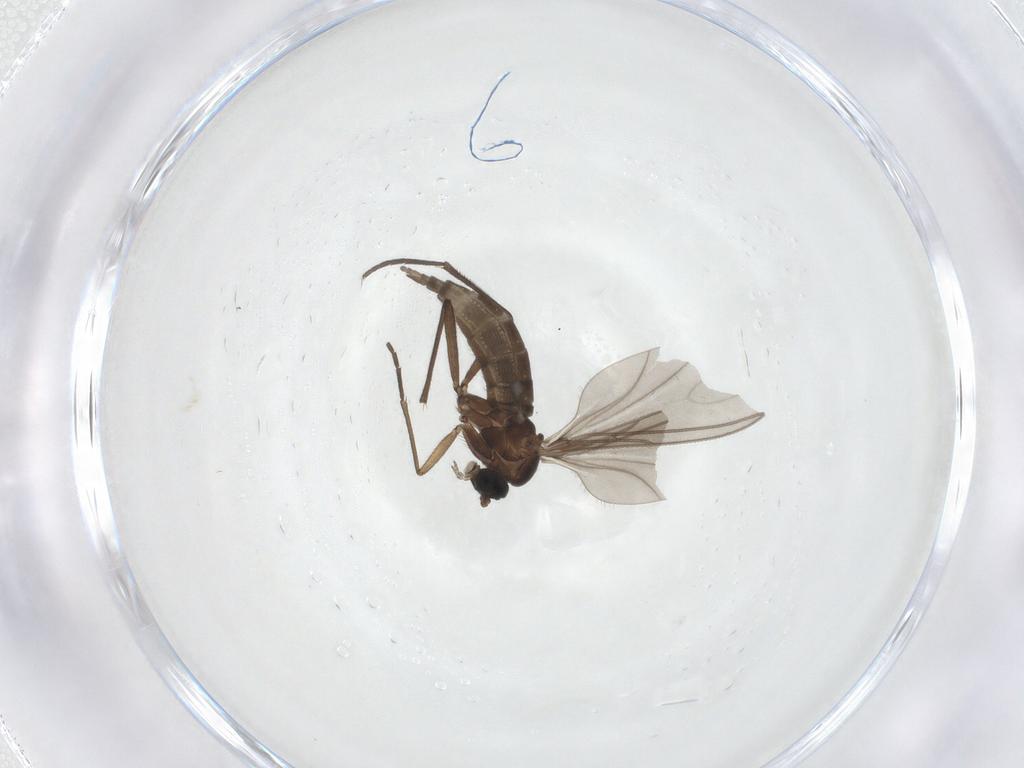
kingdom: Animalia
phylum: Arthropoda
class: Insecta
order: Diptera
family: Sciaridae
